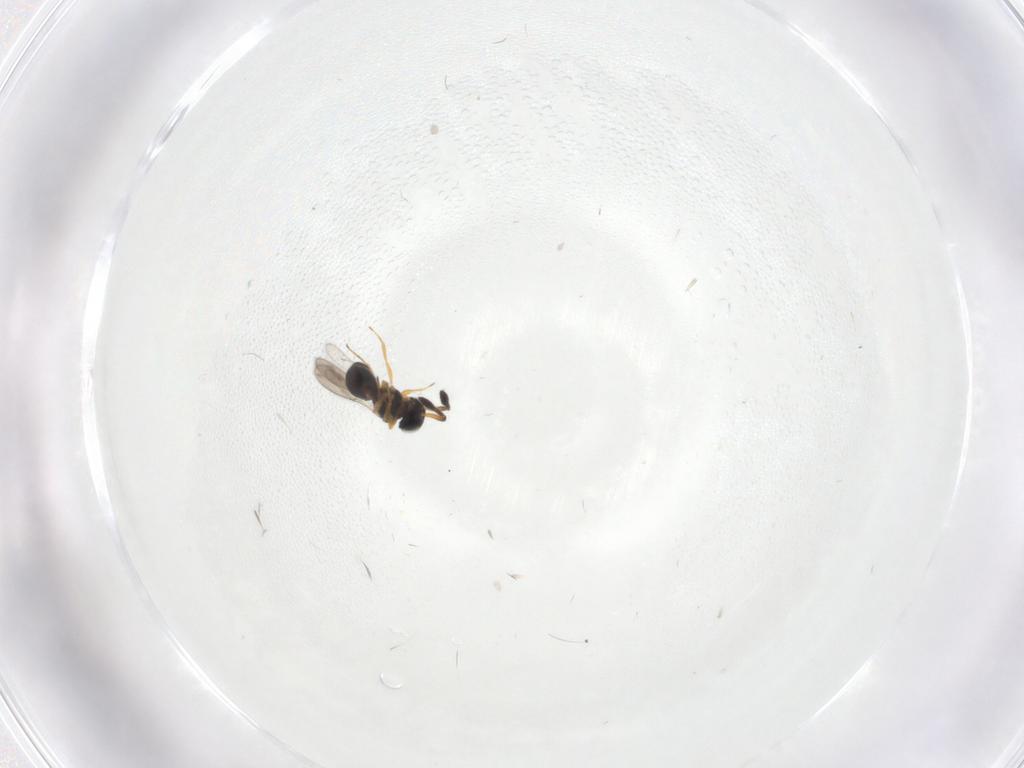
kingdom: Animalia
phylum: Arthropoda
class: Insecta
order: Hymenoptera
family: Scelionidae
